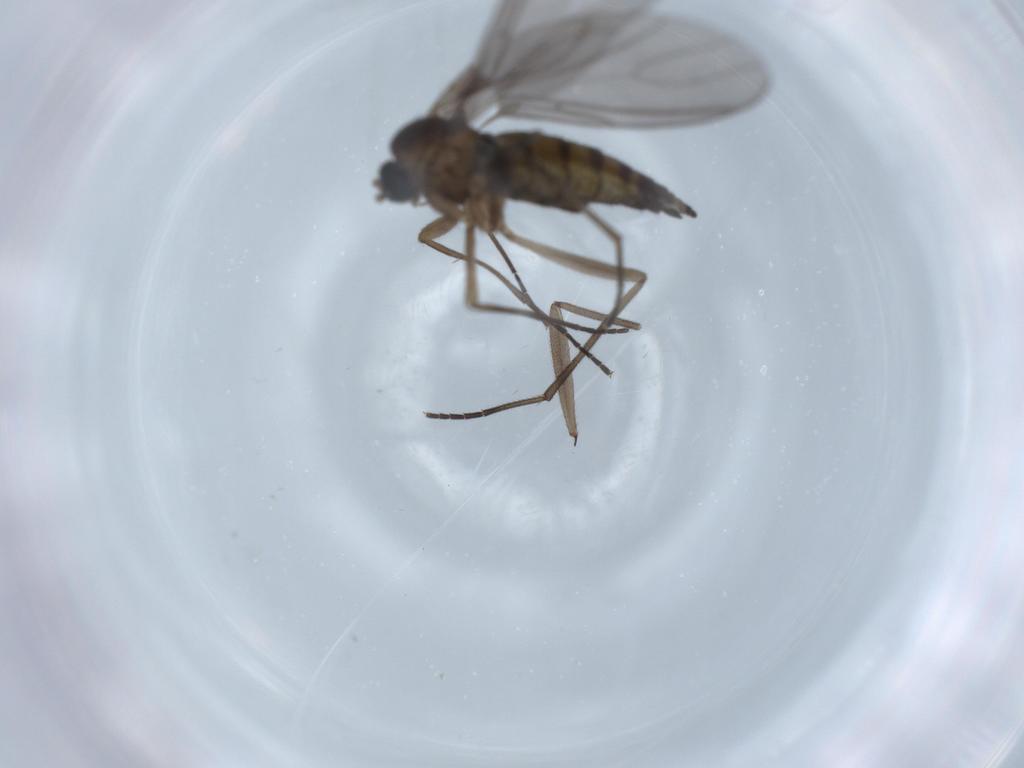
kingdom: Animalia
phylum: Arthropoda
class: Insecta
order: Diptera
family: Sciaridae
